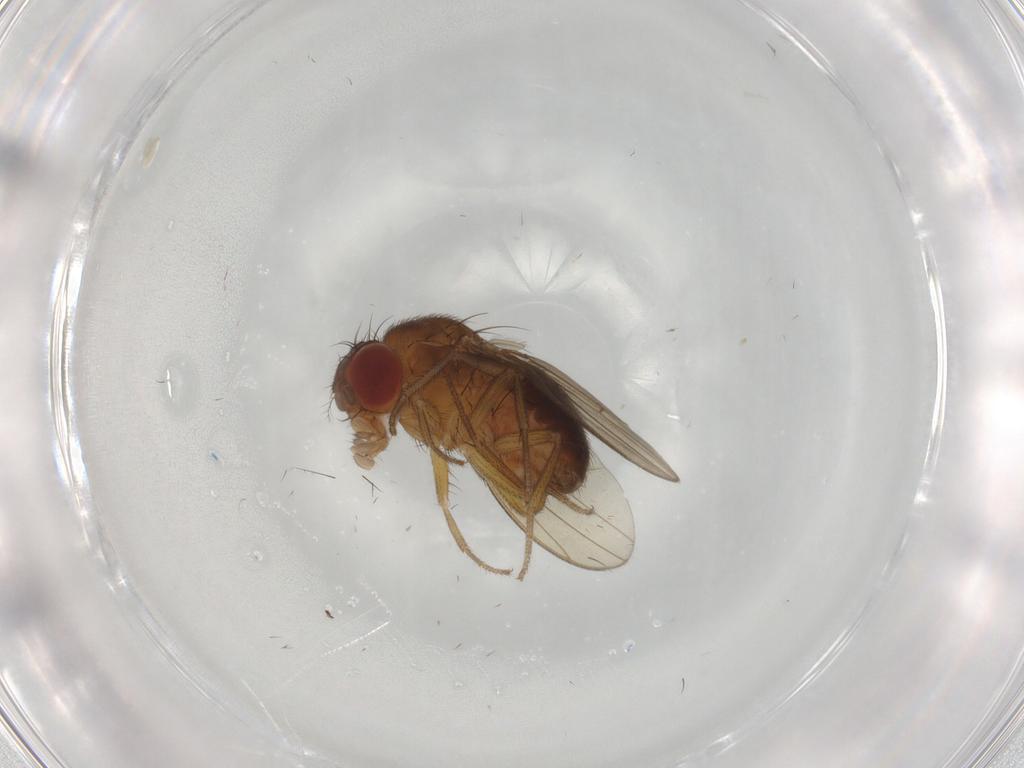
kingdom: Animalia
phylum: Arthropoda
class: Insecta
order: Diptera
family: Drosophilidae
